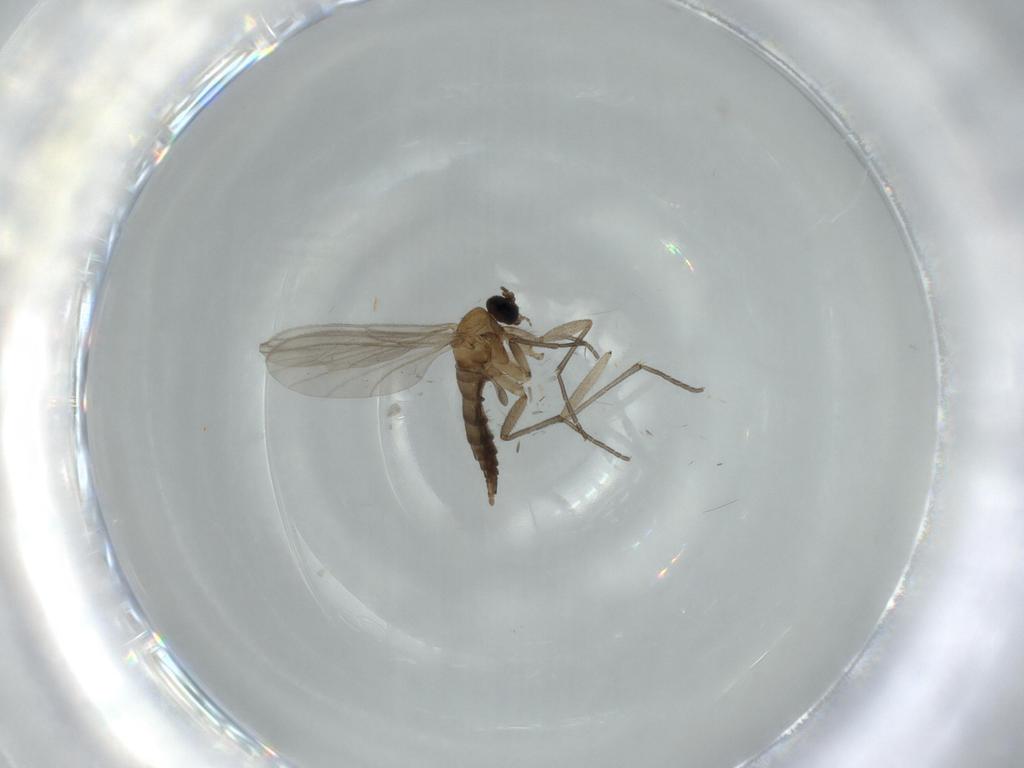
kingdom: Animalia
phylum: Arthropoda
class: Insecta
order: Diptera
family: Sciaridae
